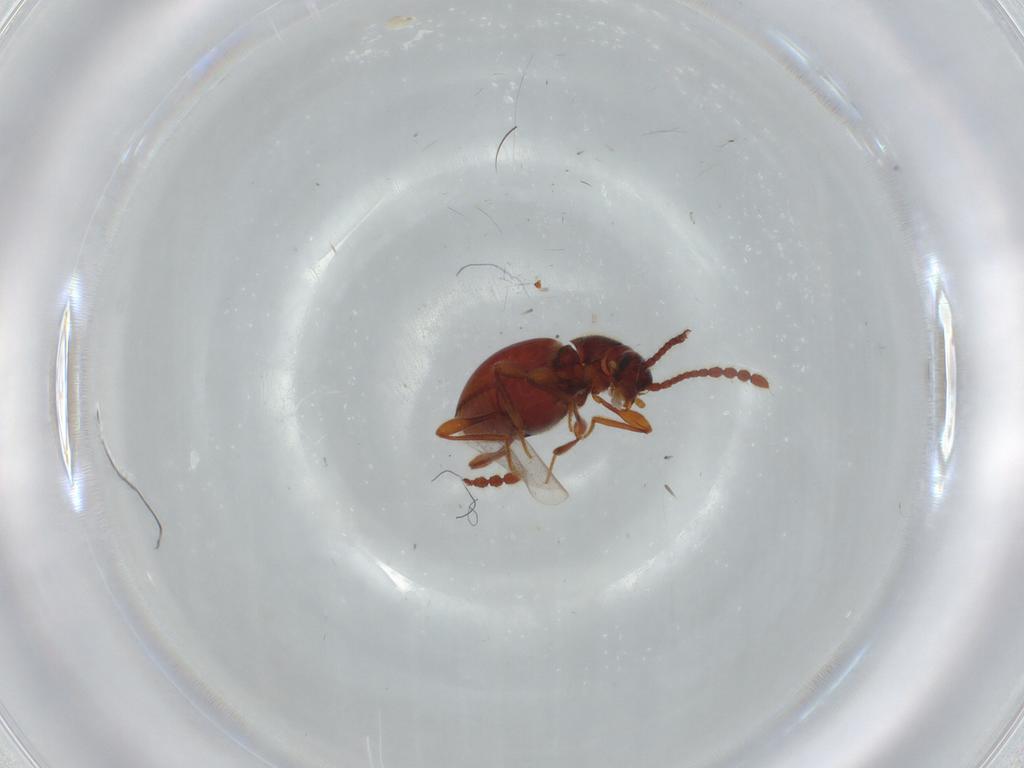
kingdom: Animalia
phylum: Arthropoda
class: Insecta
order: Coleoptera
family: Staphylinidae
